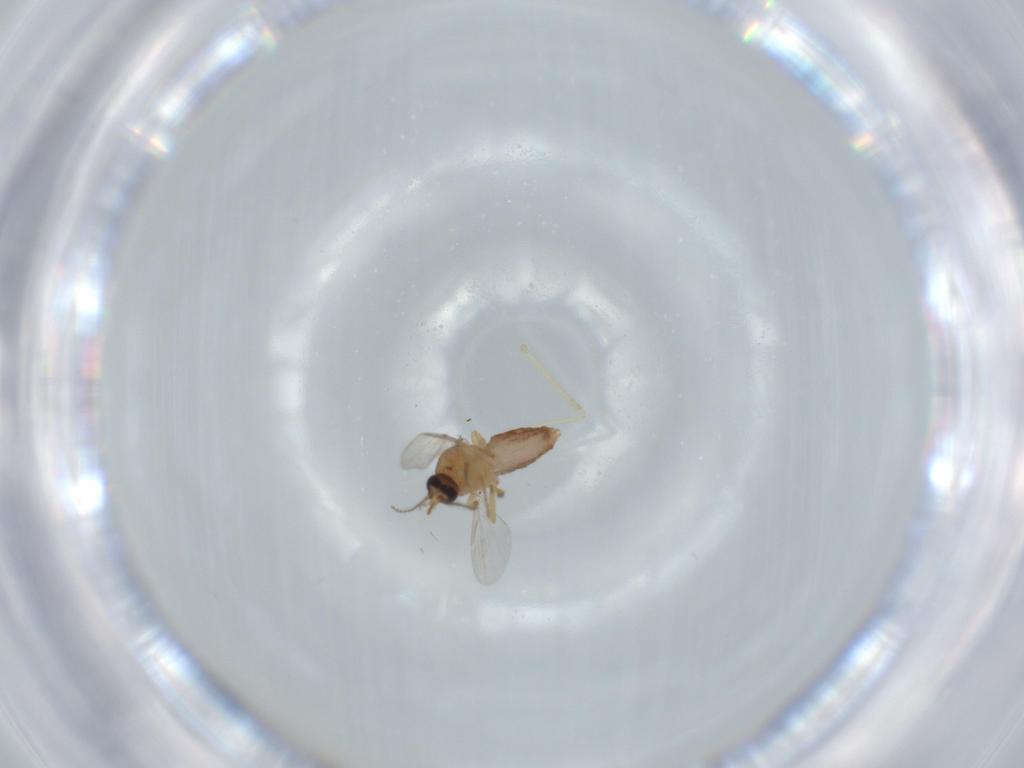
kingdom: Animalia
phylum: Arthropoda
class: Insecta
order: Diptera
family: Ceratopogonidae
